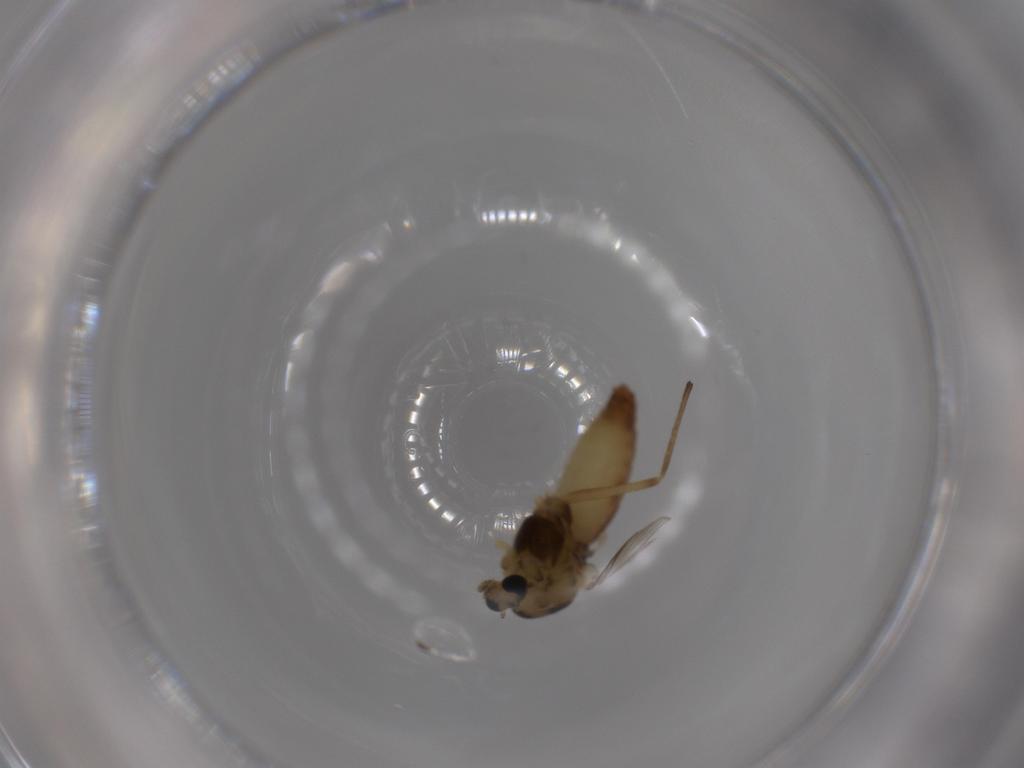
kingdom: Animalia
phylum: Arthropoda
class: Insecta
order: Diptera
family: Chironomidae
